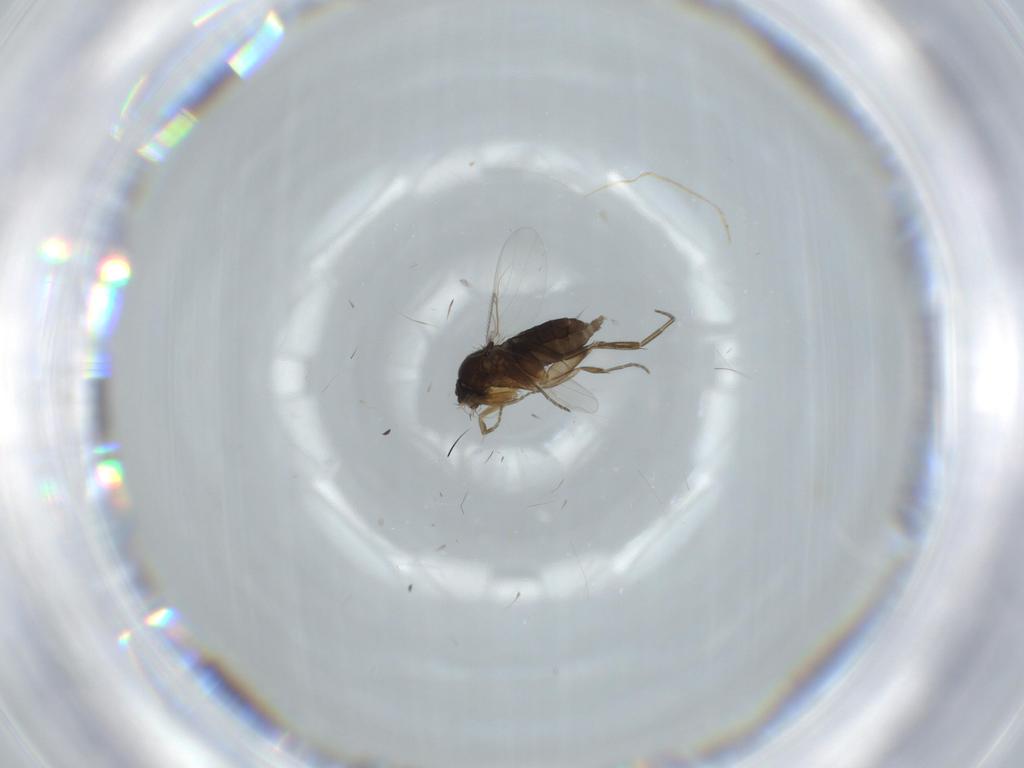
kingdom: Animalia
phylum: Arthropoda
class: Insecta
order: Diptera
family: Phoridae
